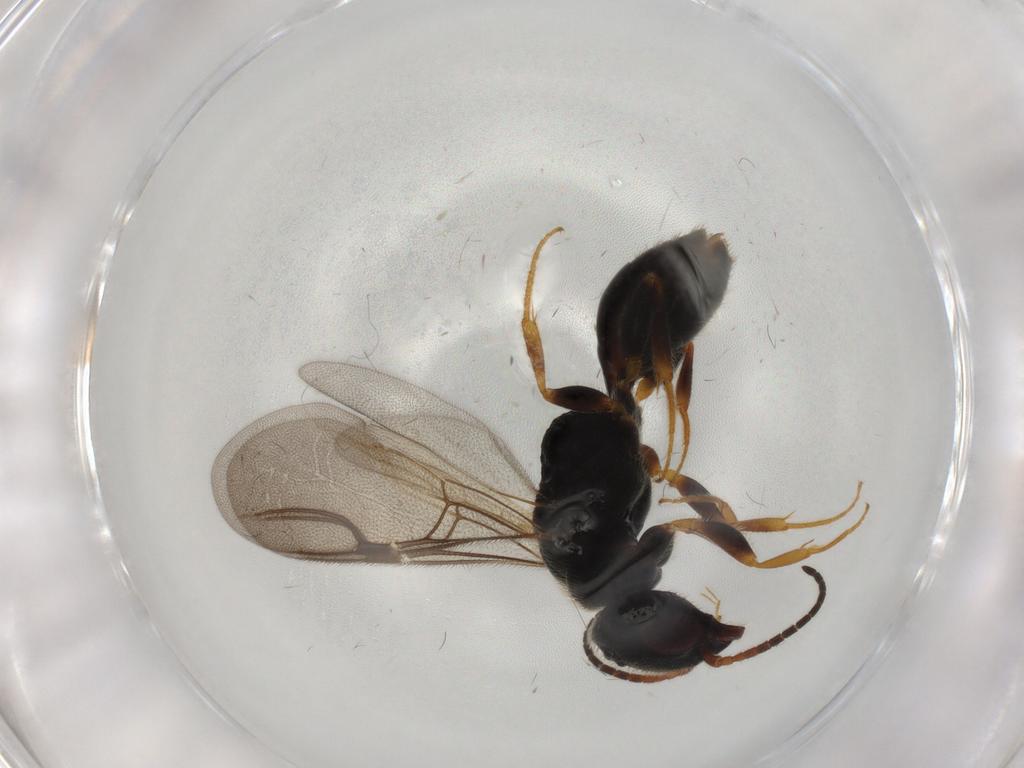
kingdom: Animalia
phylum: Arthropoda
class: Insecta
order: Hymenoptera
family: Bethylidae
